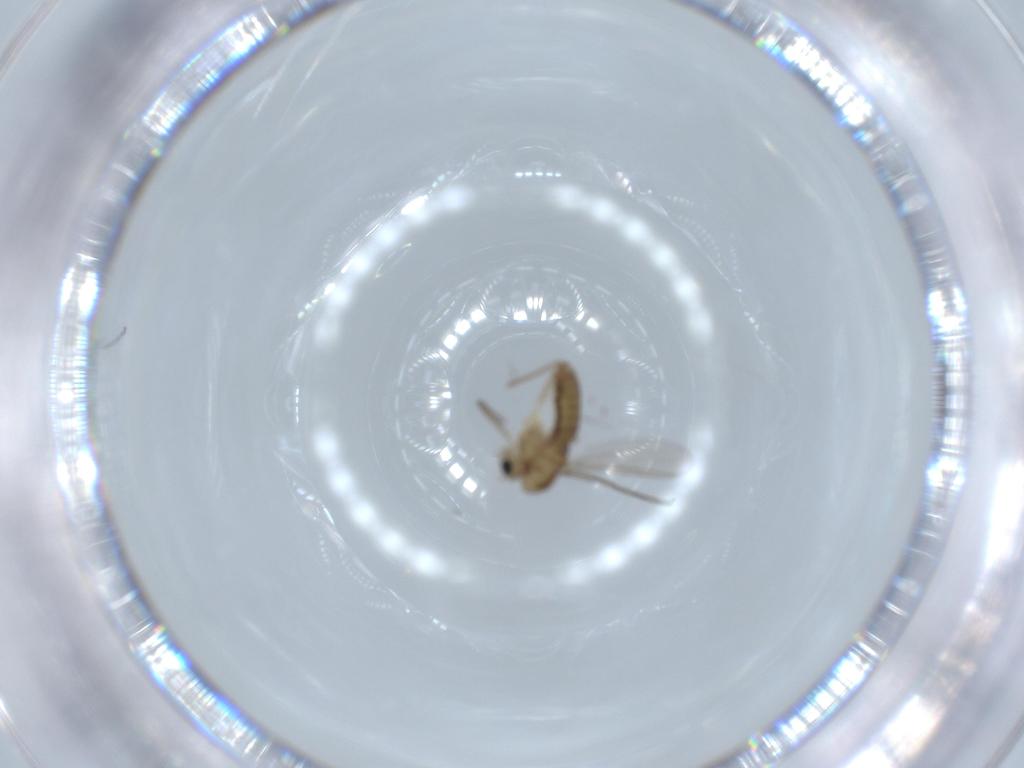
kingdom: Animalia
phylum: Arthropoda
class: Insecta
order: Diptera
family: Chironomidae
